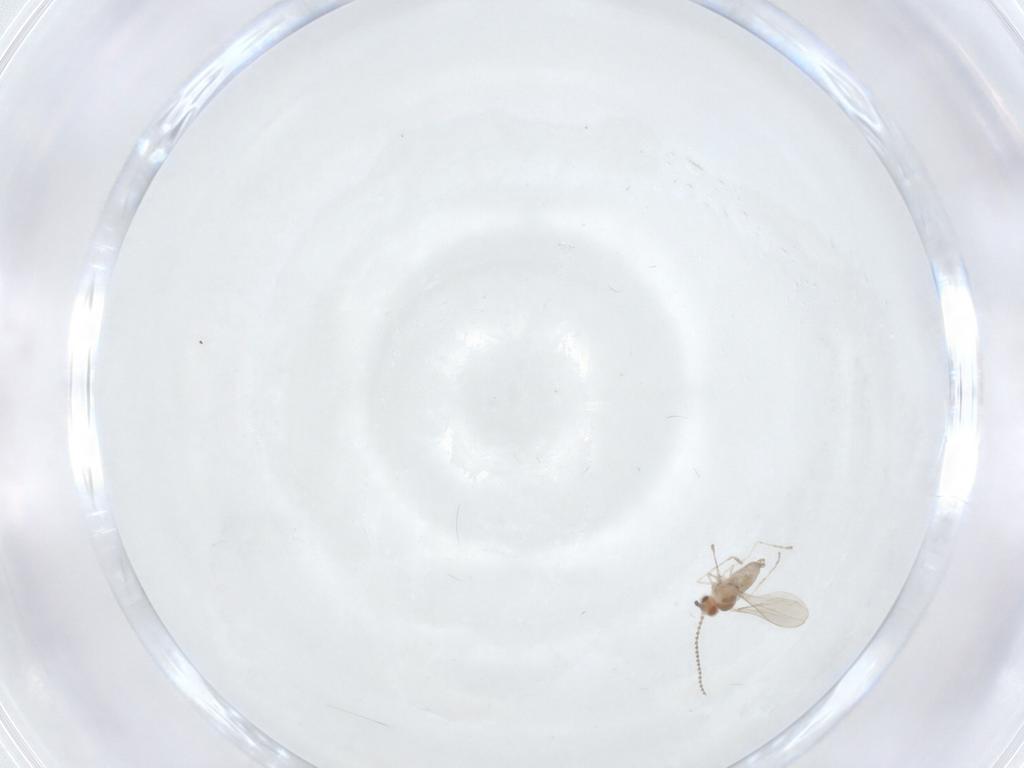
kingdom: Animalia
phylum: Arthropoda
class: Insecta
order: Diptera
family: Cecidomyiidae
